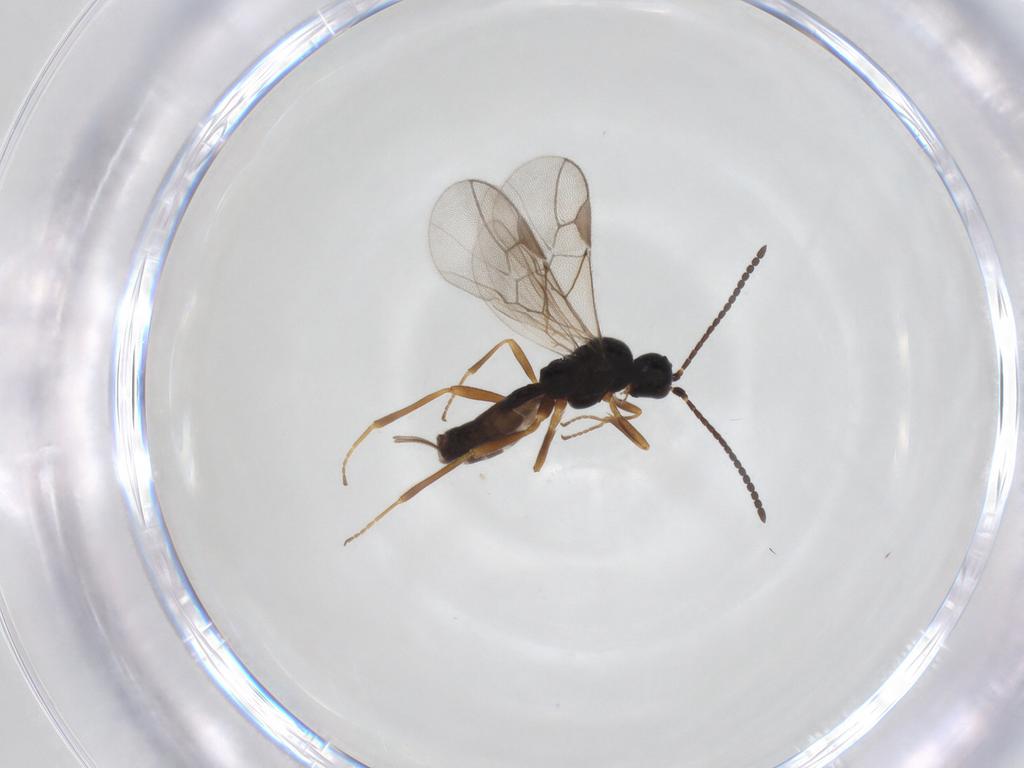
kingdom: Animalia
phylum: Arthropoda
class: Insecta
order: Hymenoptera
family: Braconidae
